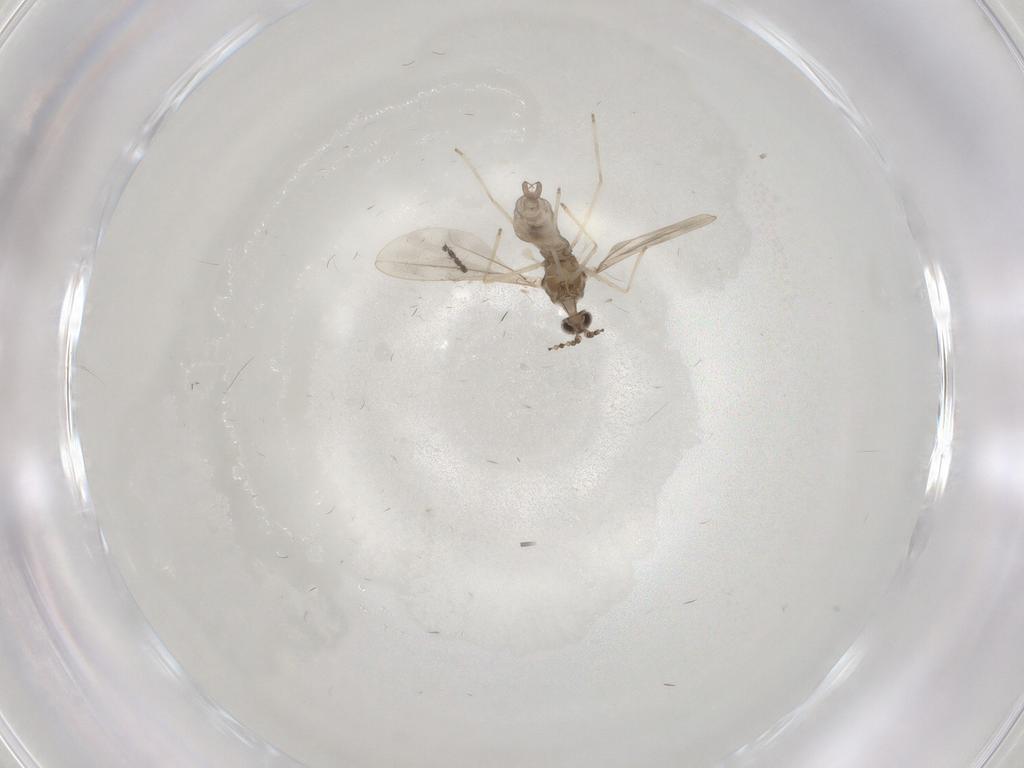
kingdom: Animalia
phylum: Arthropoda
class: Insecta
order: Diptera
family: Cecidomyiidae
